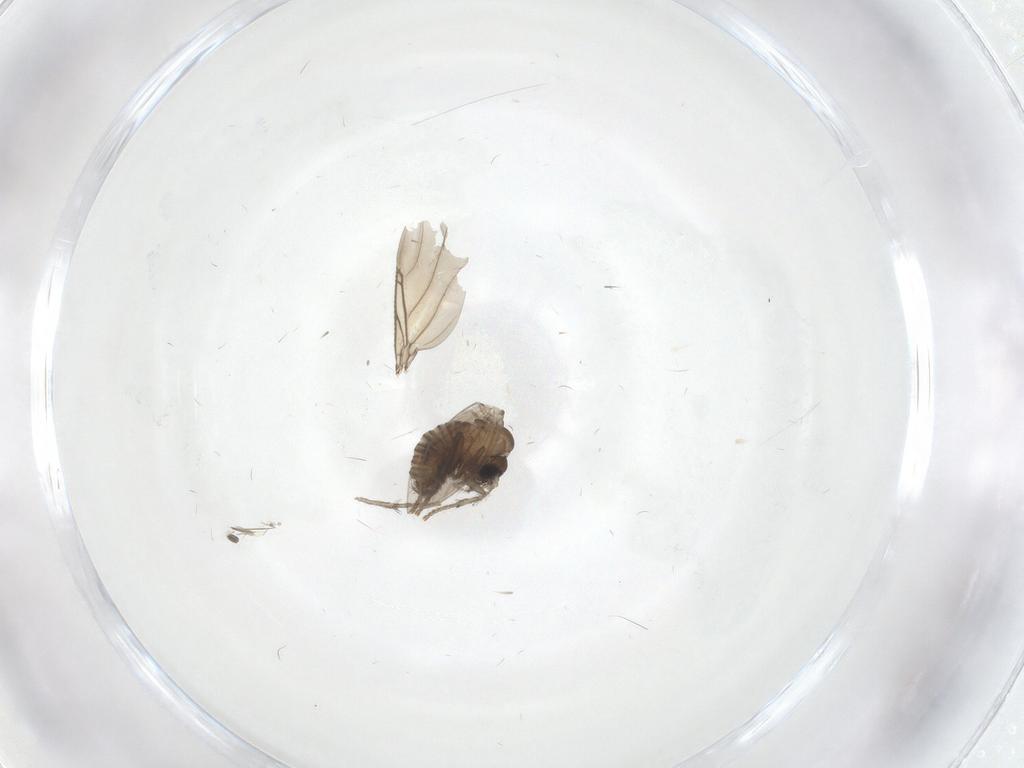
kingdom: Animalia
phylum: Arthropoda
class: Insecta
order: Diptera
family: Psychodidae
